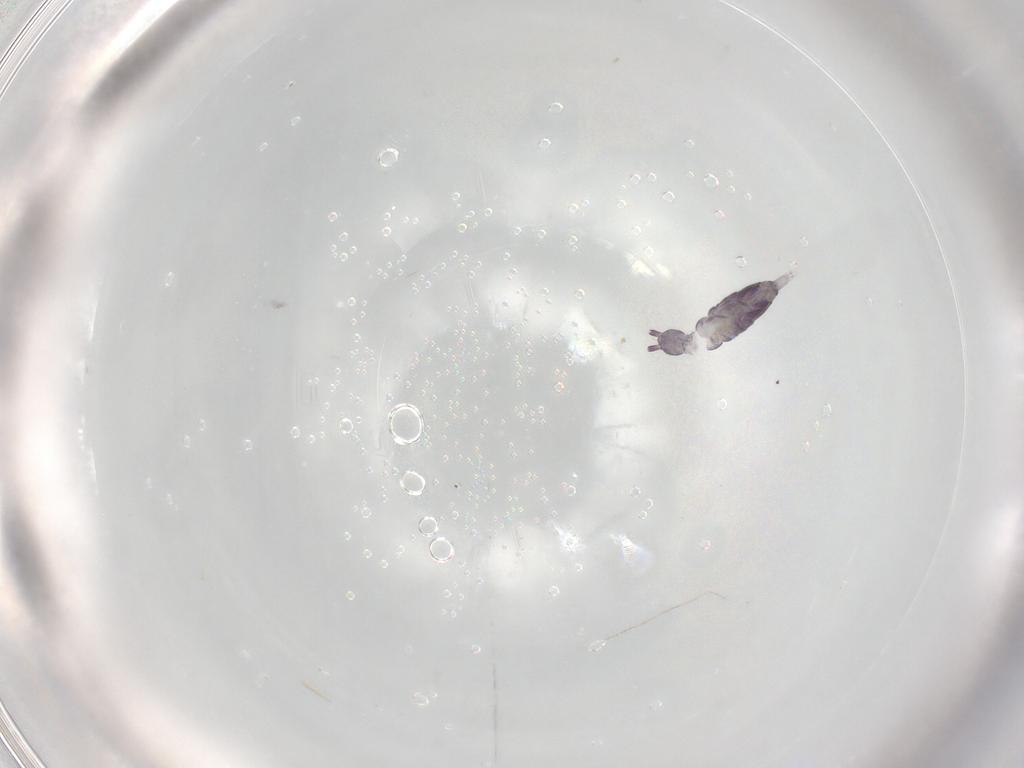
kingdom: Animalia
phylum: Arthropoda
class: Collembola
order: Entomobryomorpha
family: Entomobryidae
